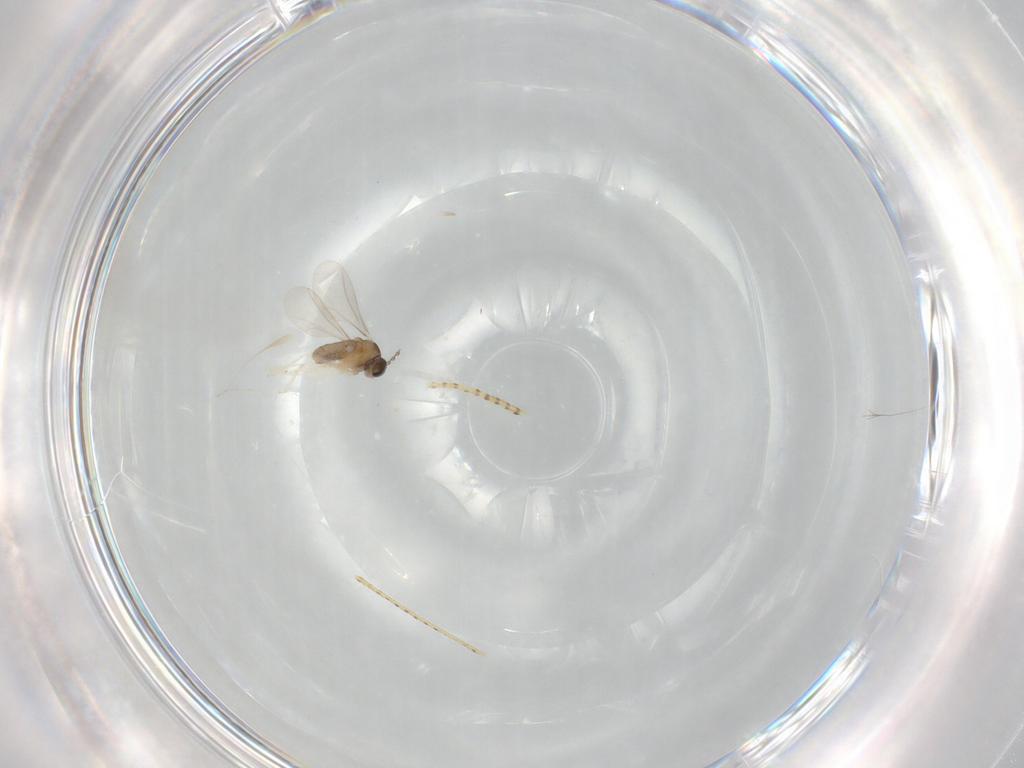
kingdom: Animalia
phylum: Arthropoda
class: Insecta
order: Diptera
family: Cecidomyiidae
